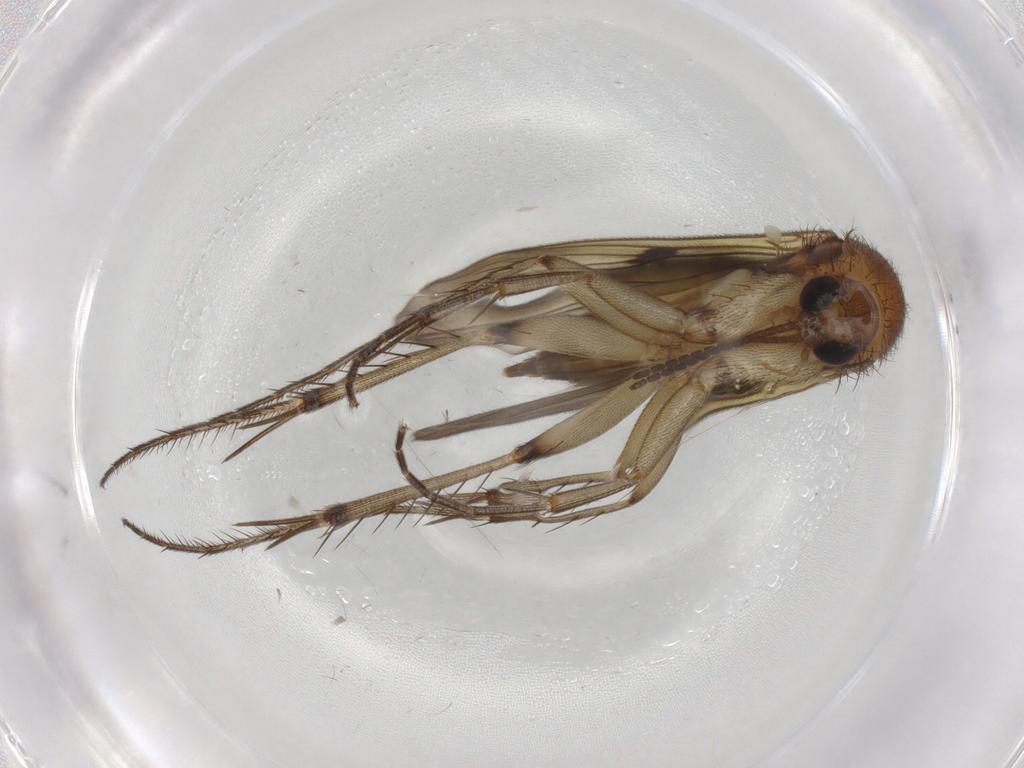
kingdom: Animalia
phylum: Arthropoda
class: Insecta
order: Diptera
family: Mycetophilidae
